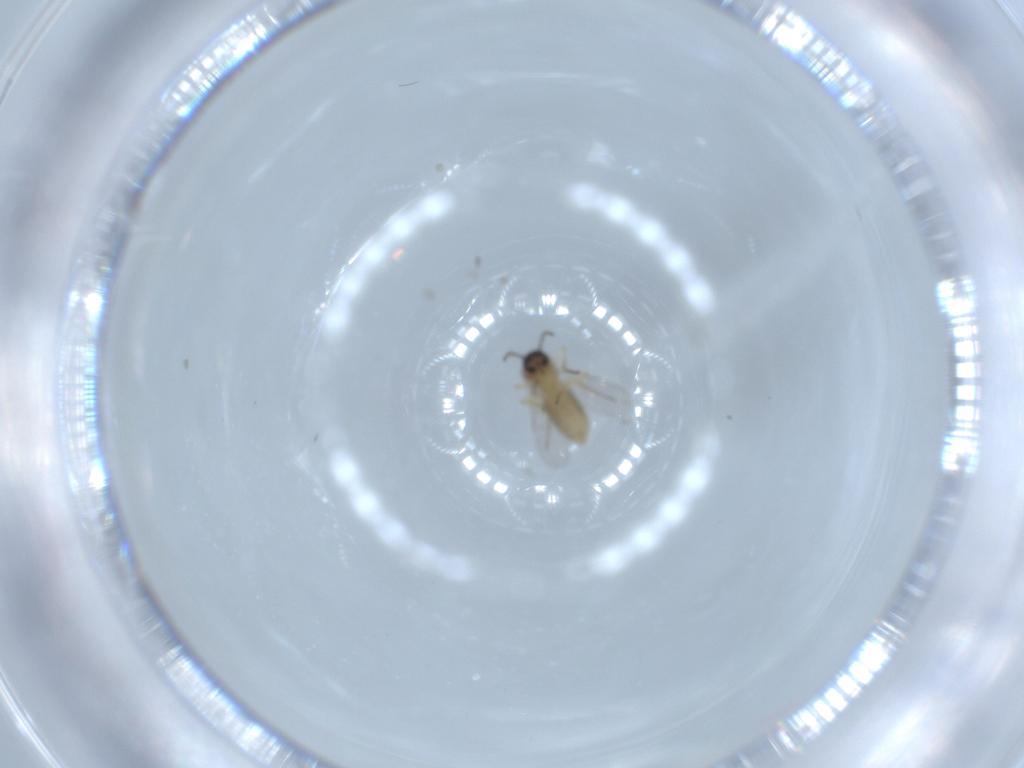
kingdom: Animalia
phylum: Arthropoda
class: Insecta
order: Diptera
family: Ceratopogonidae
